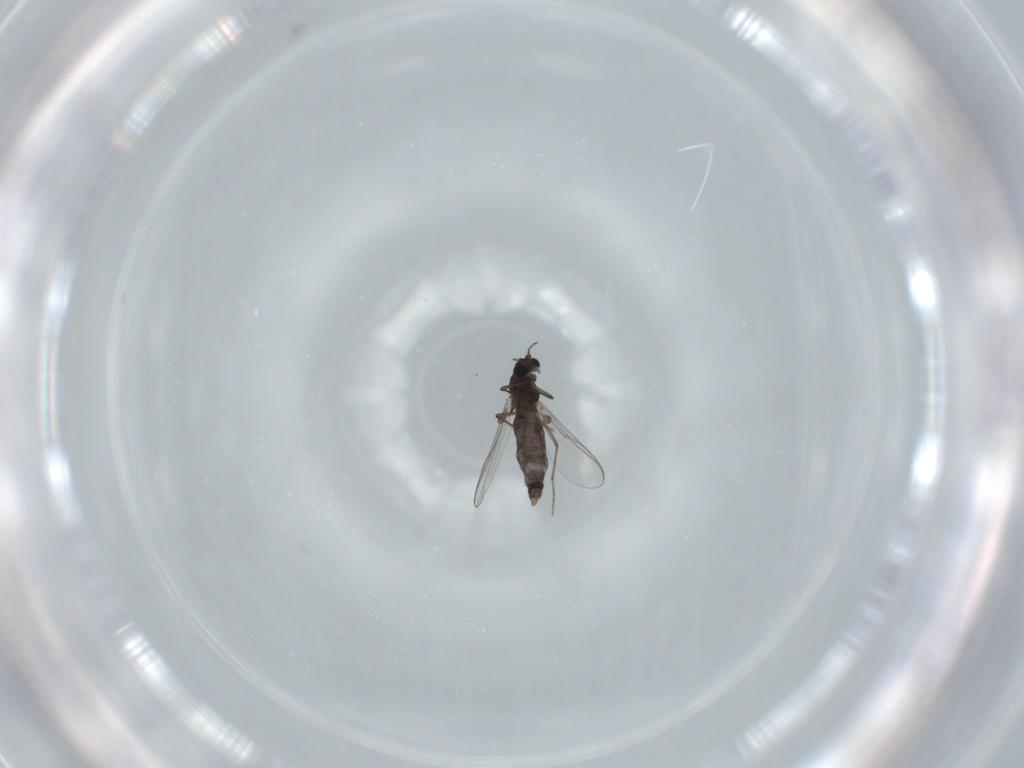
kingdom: Animalia
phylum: Arthropoda
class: Insecta
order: Diptera
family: Chironomidae
